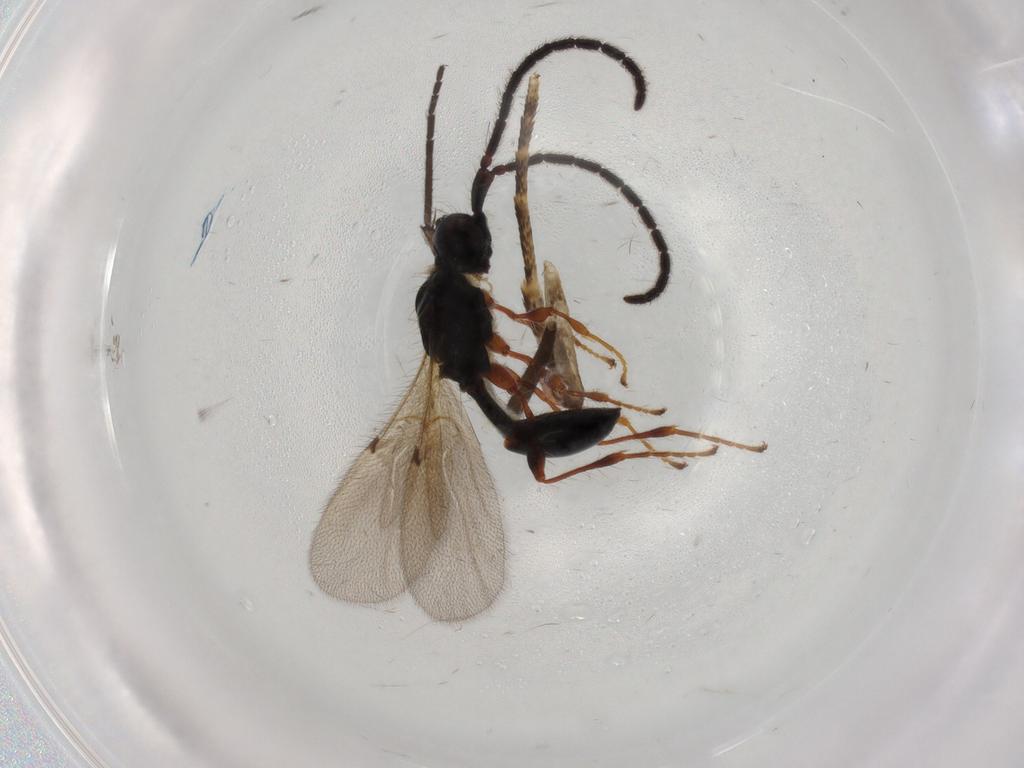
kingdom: Animalia
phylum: Arthropoda
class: Insecta
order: Hymenoptera
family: Diapriidae
